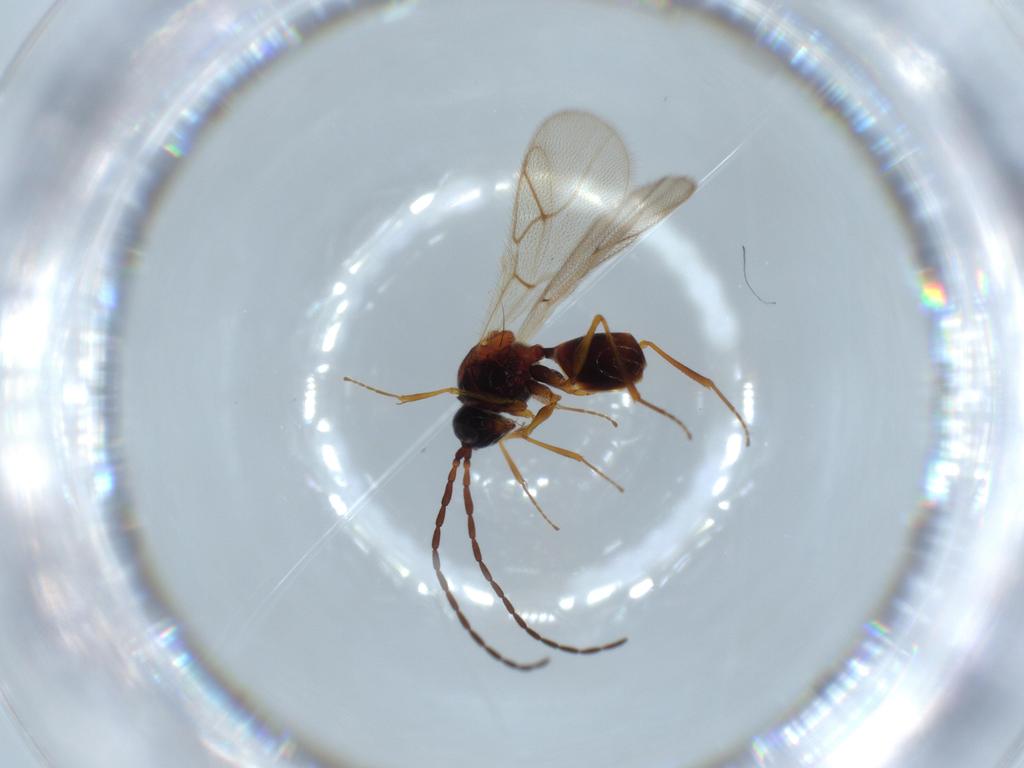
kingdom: Animalia
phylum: Arthropoda
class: Insecta
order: Hymenoptera
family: Figitidae
